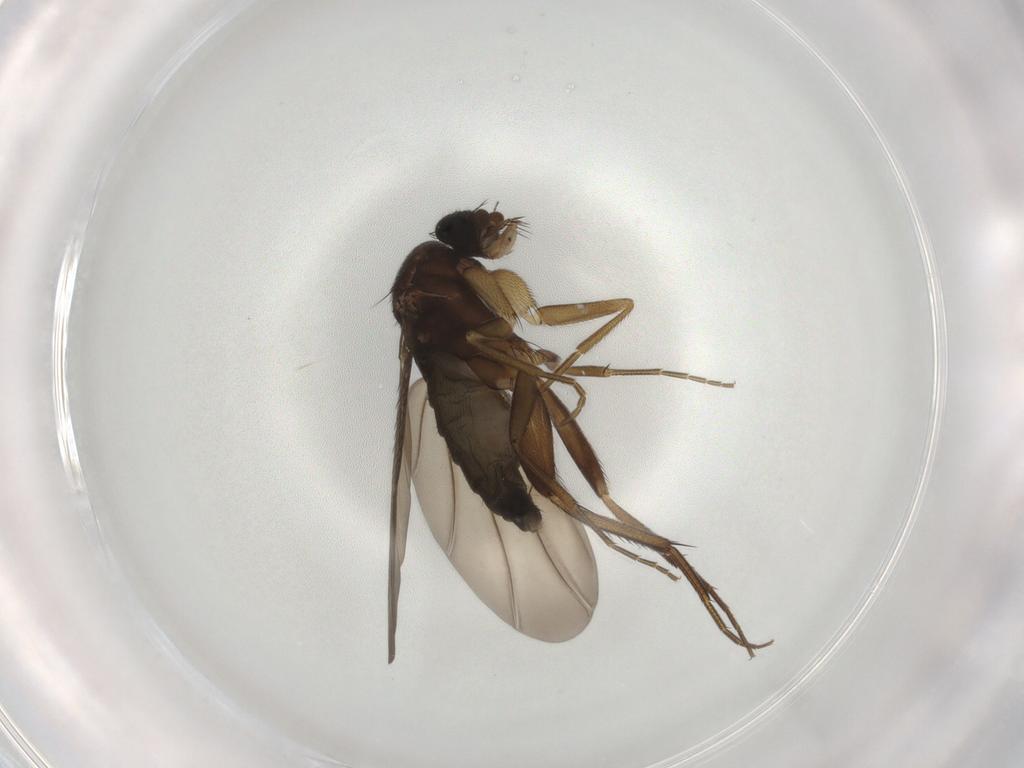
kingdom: Animalia
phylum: Arthropoda
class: Insecta
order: Diptera
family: Phoridae
